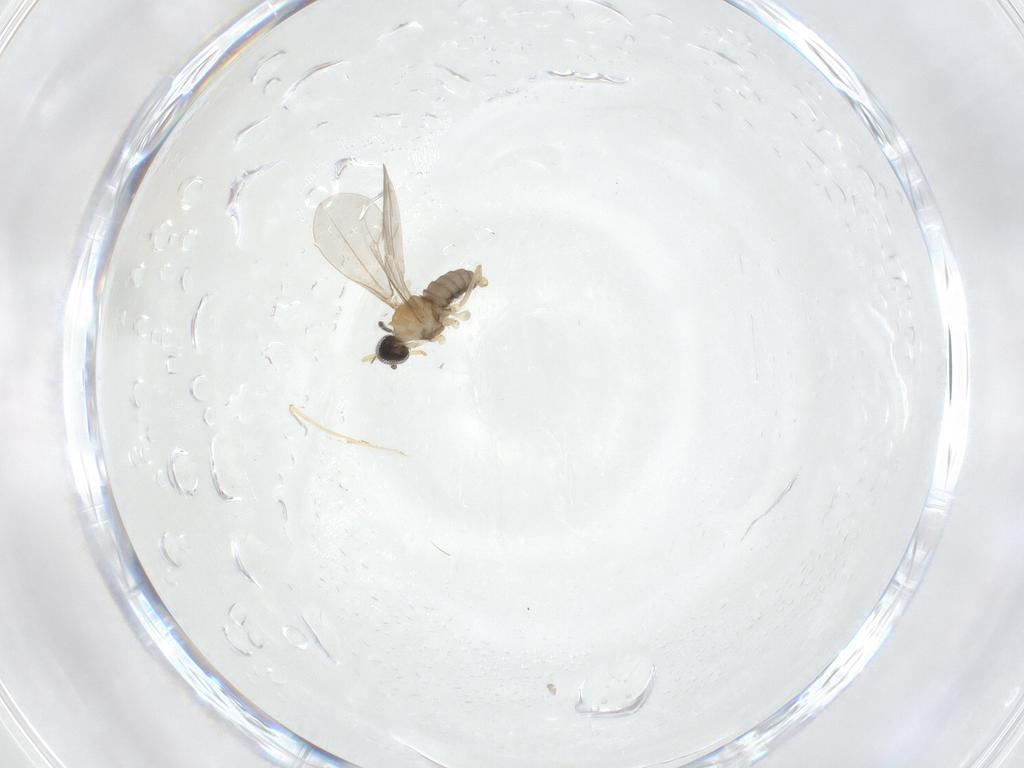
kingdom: Animalia
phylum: Arthropoda
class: Insecta
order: Diptera
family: Cecidomyiidae
